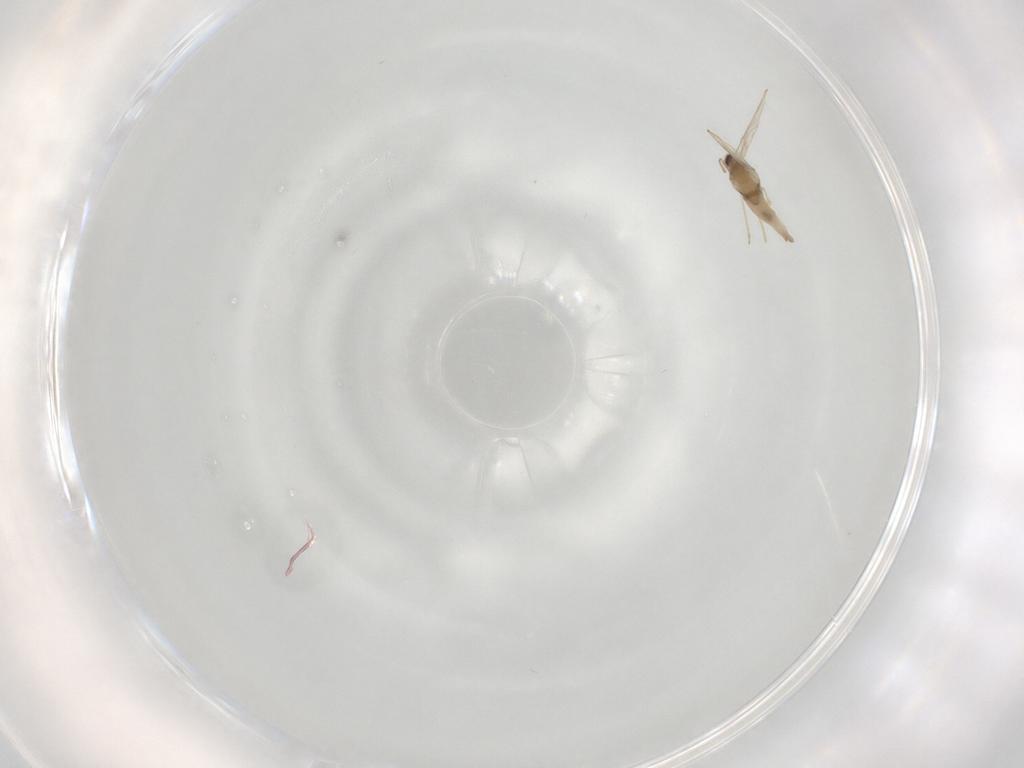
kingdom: Animalia
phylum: Arthropoda
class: Insecta
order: Diptera
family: Cecidomyiidae
